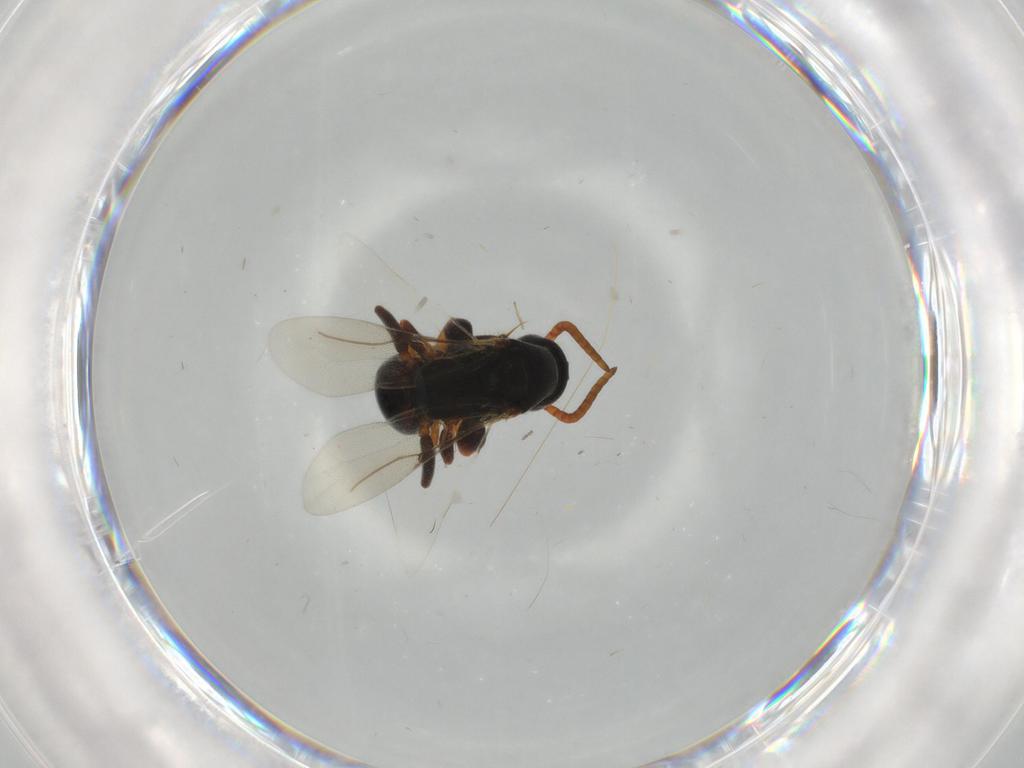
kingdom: Animalia
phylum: Arthropoda
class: Insecta
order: Hymenoptera
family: Bethylidae
